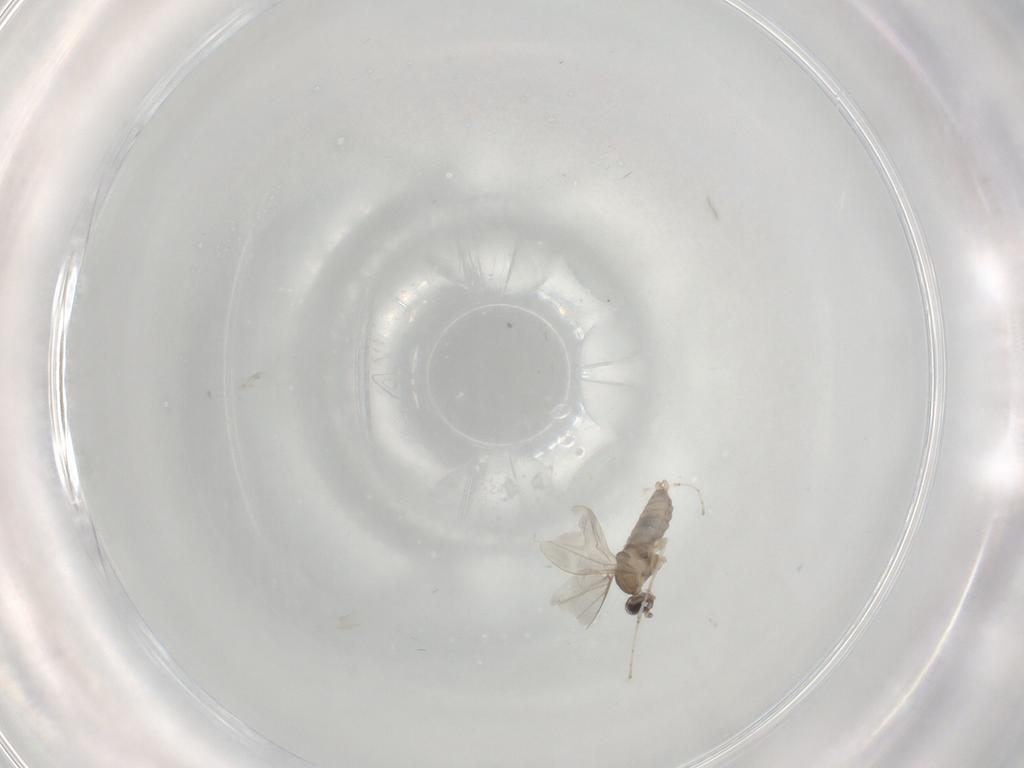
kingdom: Animalia
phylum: Arthropoda
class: Insecta
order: Diptera
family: Cecidomyiidae
